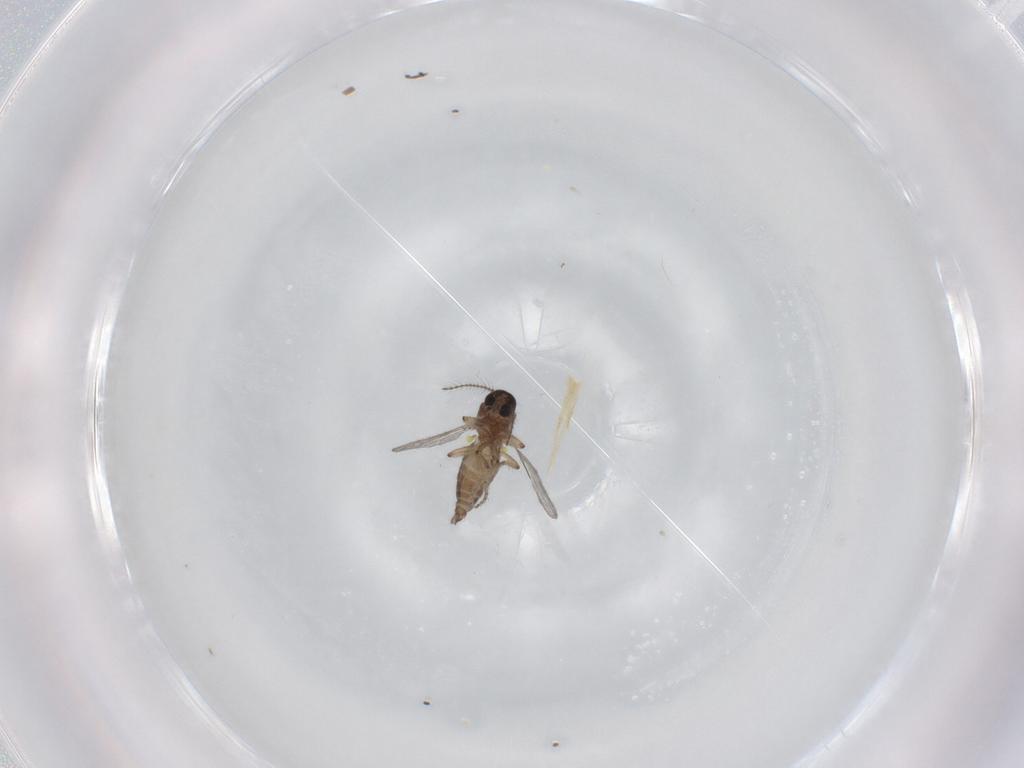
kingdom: Animalia
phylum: Arthropoda
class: Insecta
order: Diptera
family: Ceratopogonidae
